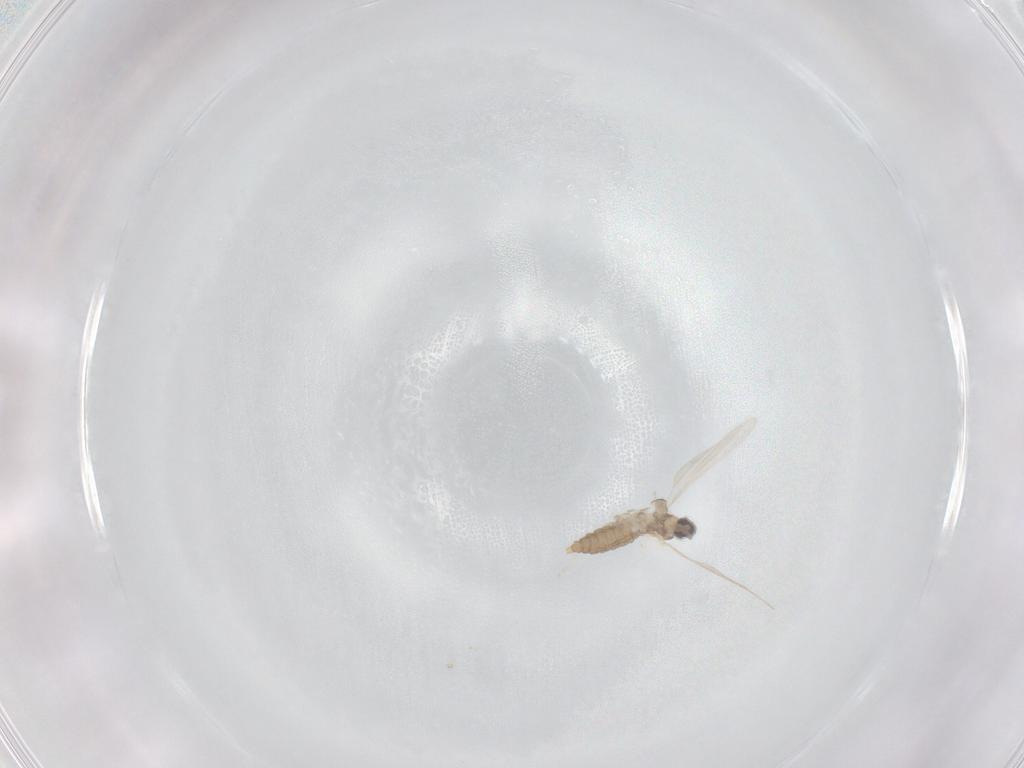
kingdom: Animalia
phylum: Arthropoda
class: Insecta
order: Diptera
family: Cecidomyiidae
